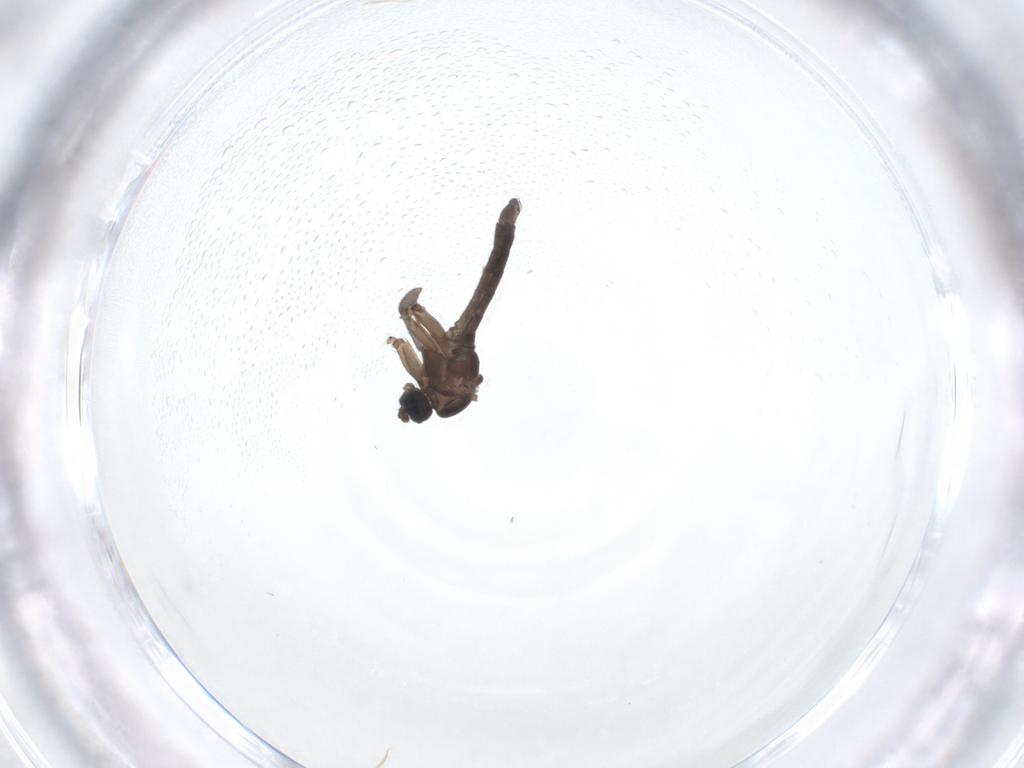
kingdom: Animalia
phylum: Arthropoda
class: Insecta
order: Diptera
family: Sciaridae
